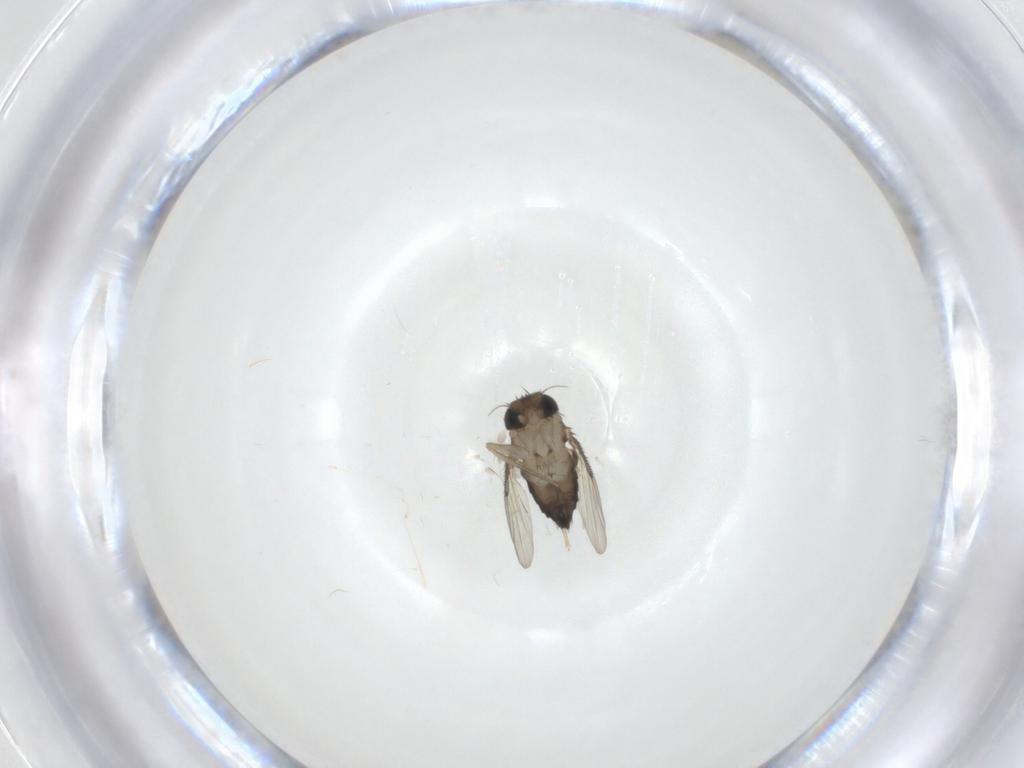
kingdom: Animalia
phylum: Arthropoda
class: Insecta
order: Diptera
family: Phoridae
